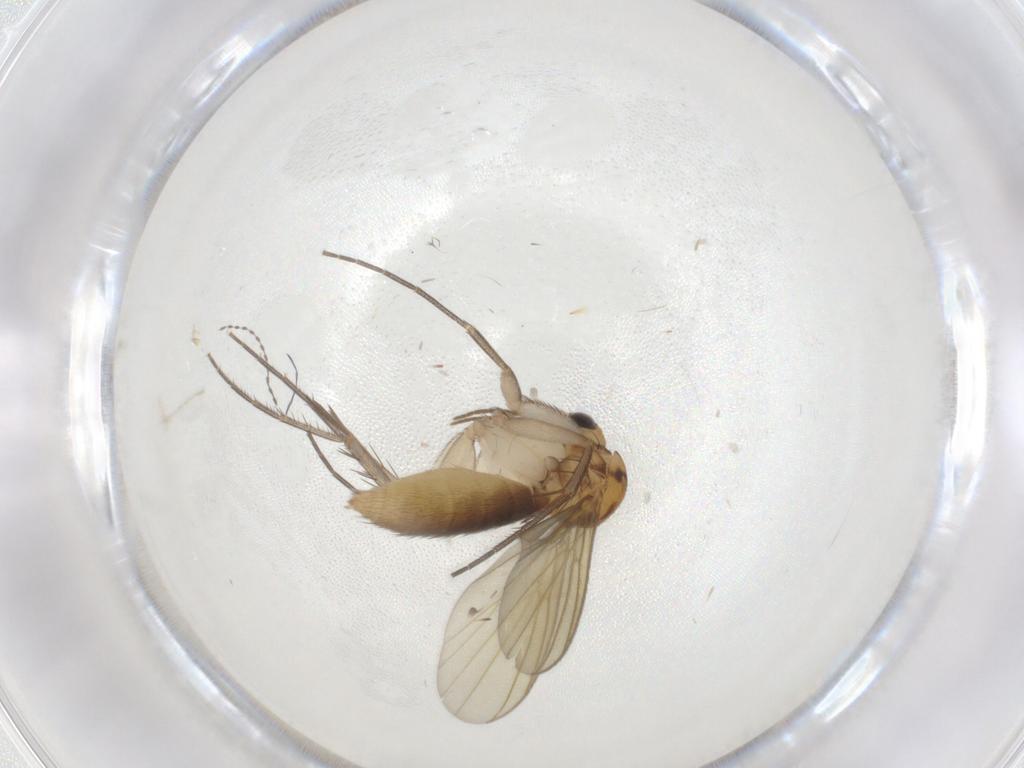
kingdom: Animalia
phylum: Arthropoda
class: Insecta
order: Diptera
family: Mycetophilidae
